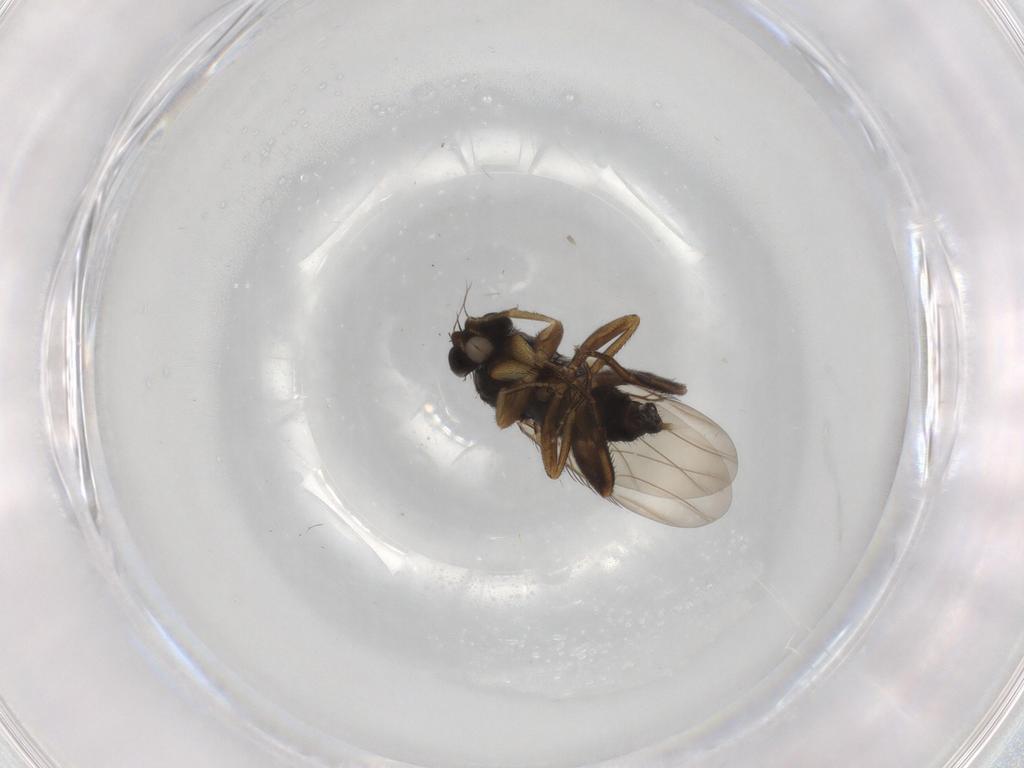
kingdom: Animalia
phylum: Arthropoda
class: Insecta
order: Diptera
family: Phoridae
